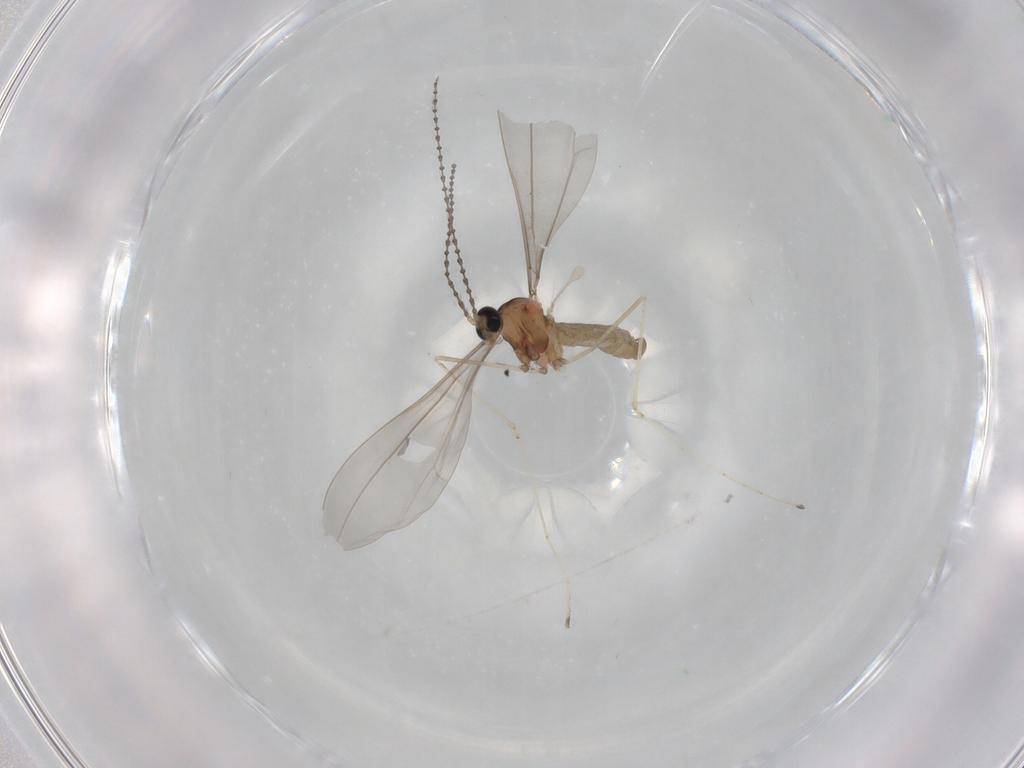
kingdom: Animalia
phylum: Arthropoda
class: Insecta
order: Diptera
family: Cecidomyiidae
